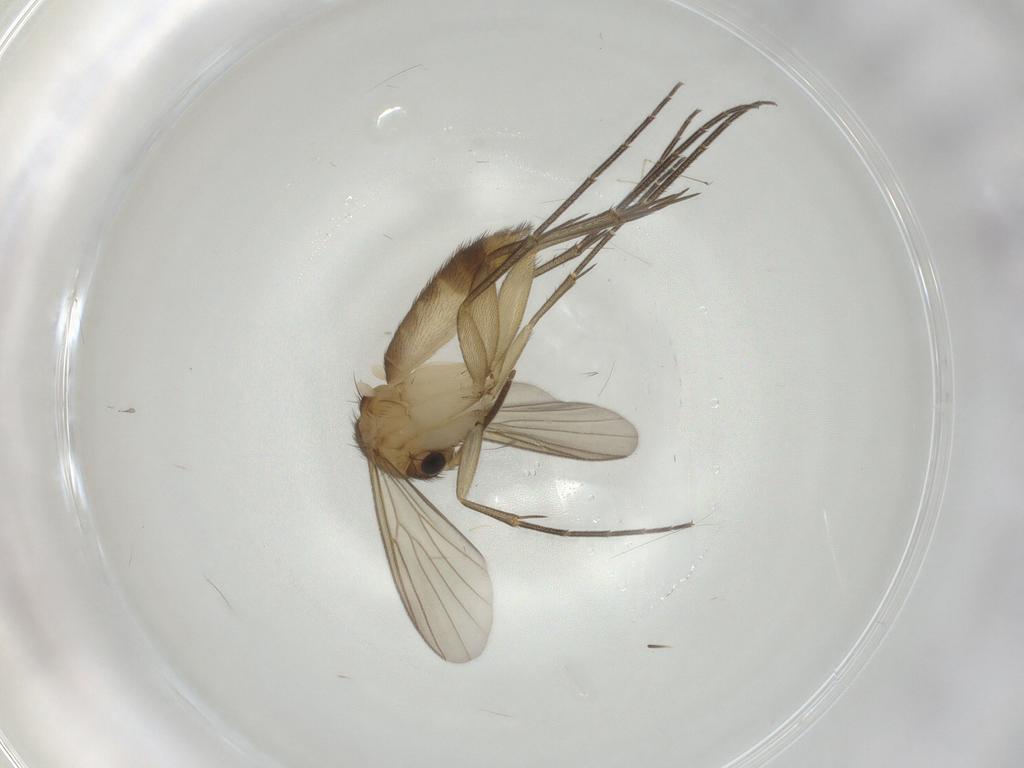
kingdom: Animalia
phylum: Arthropoda
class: Insecta
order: Diptera
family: Mycetophilidae
